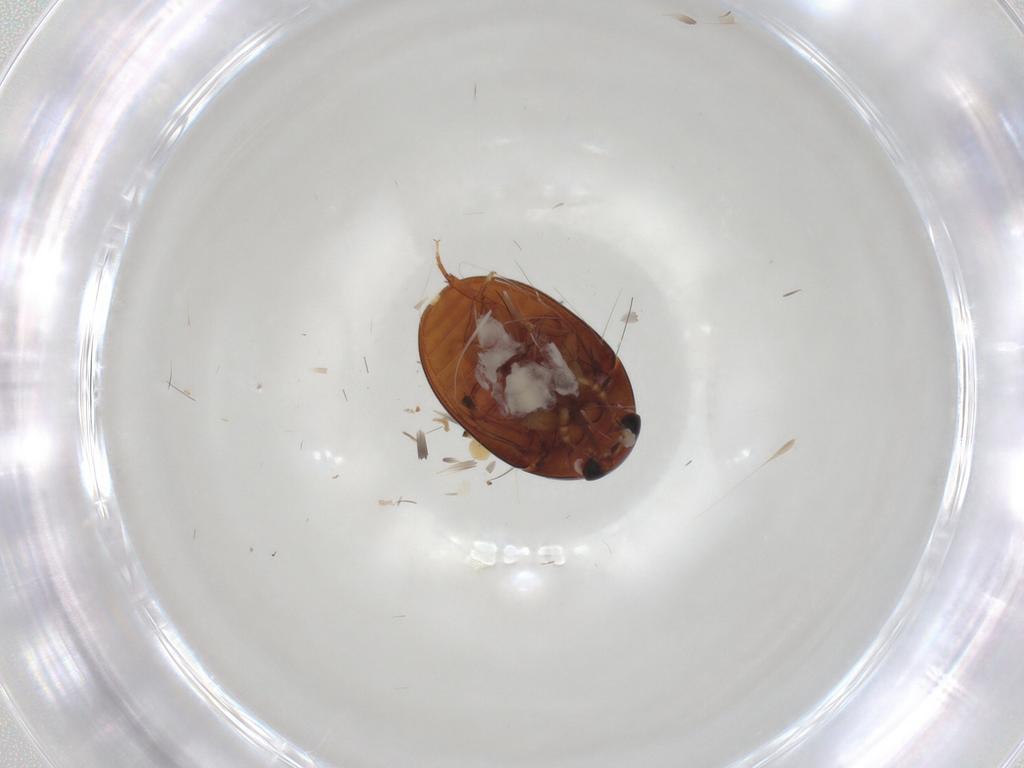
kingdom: Animalia
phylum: Arthropoda
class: Insecta
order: Coleoptera
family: Phalacridae
